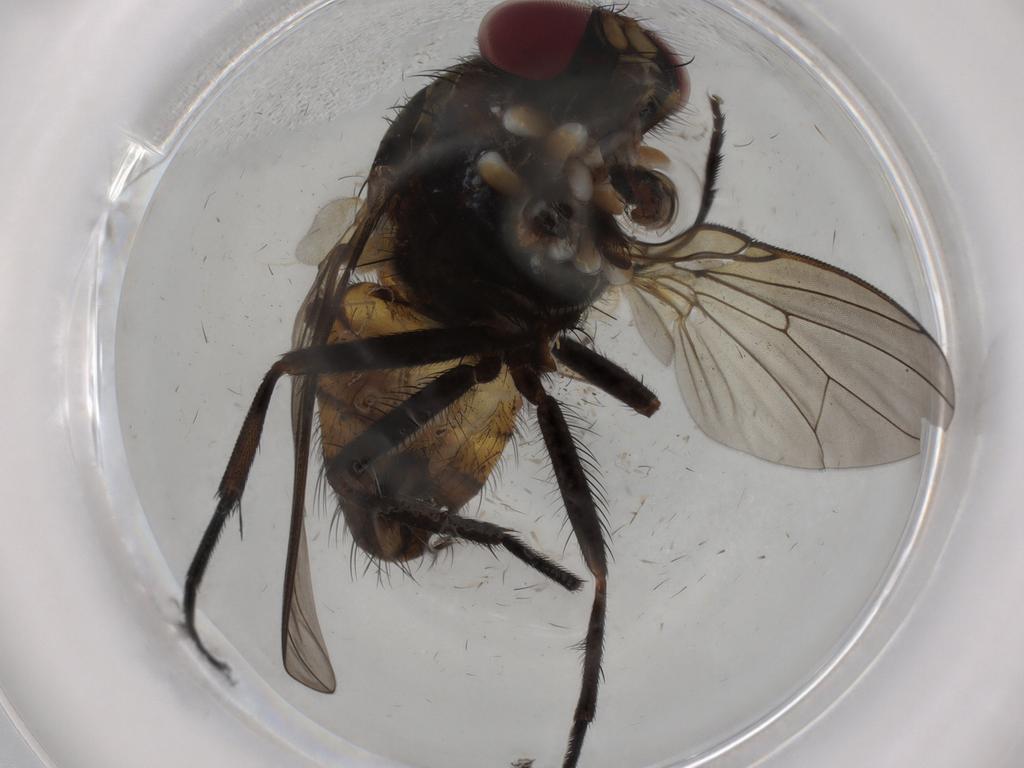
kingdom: Animalia
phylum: Arthropoda
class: Insecta
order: Diptera
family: Muscidae
